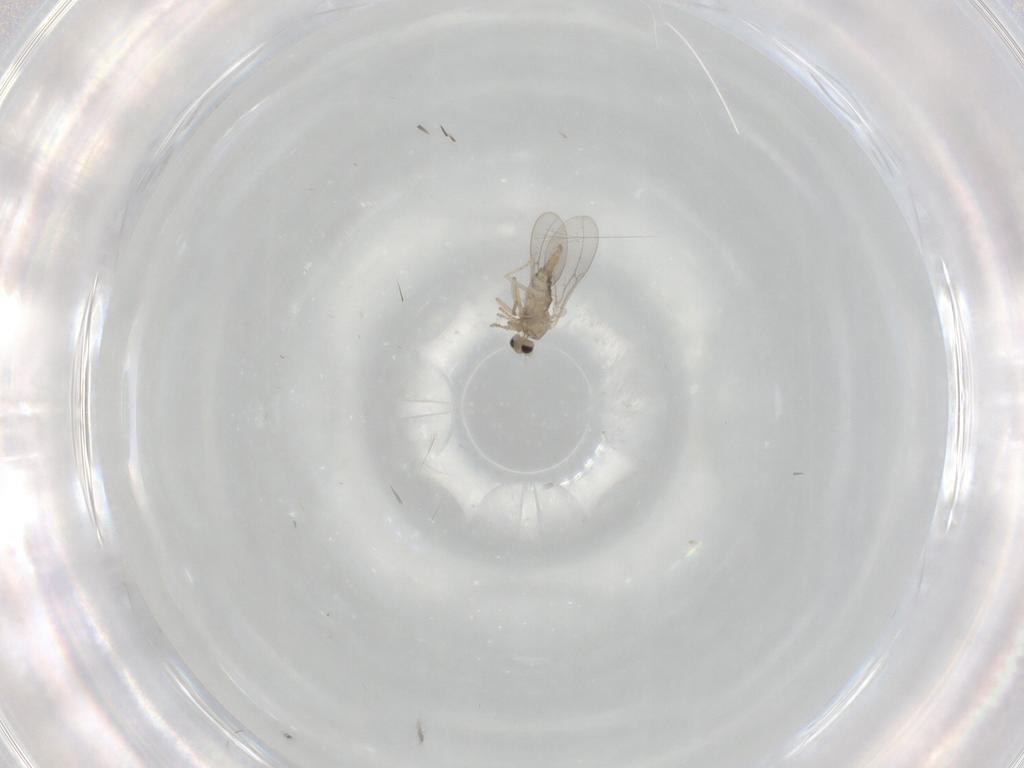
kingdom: Animalia
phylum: Arthropoda
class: Insecta
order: Diptera
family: Cecidomyiidae
